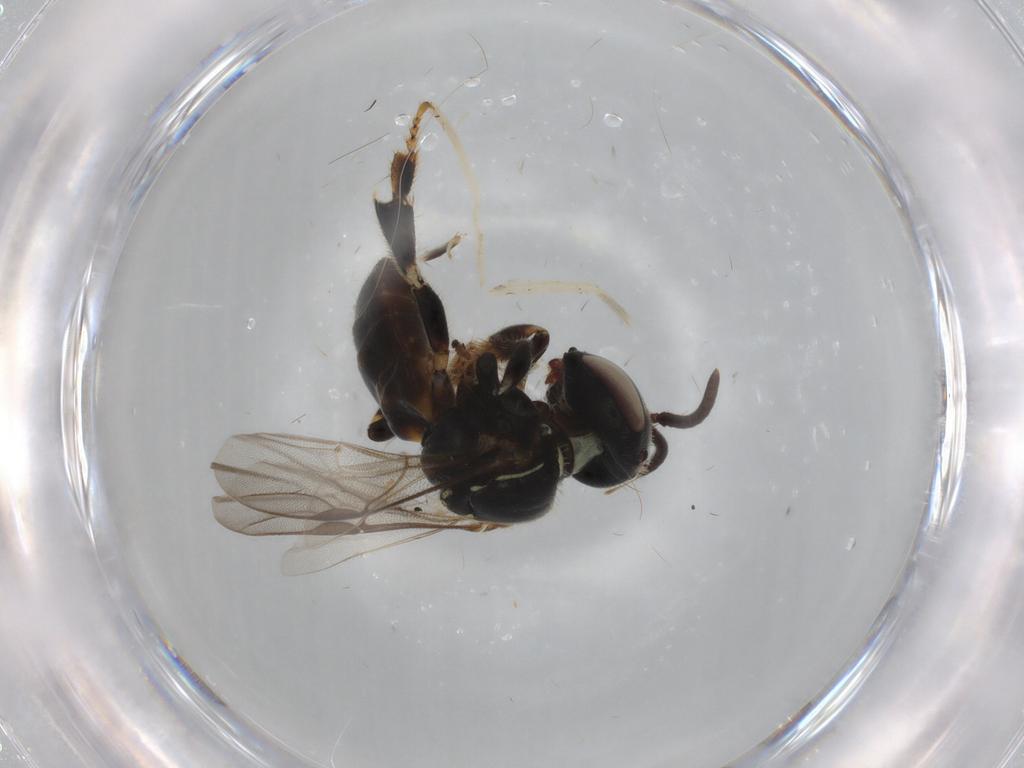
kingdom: Animalia
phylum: Arthropoda
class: Insecta
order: Hymenoptera
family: Apidae
